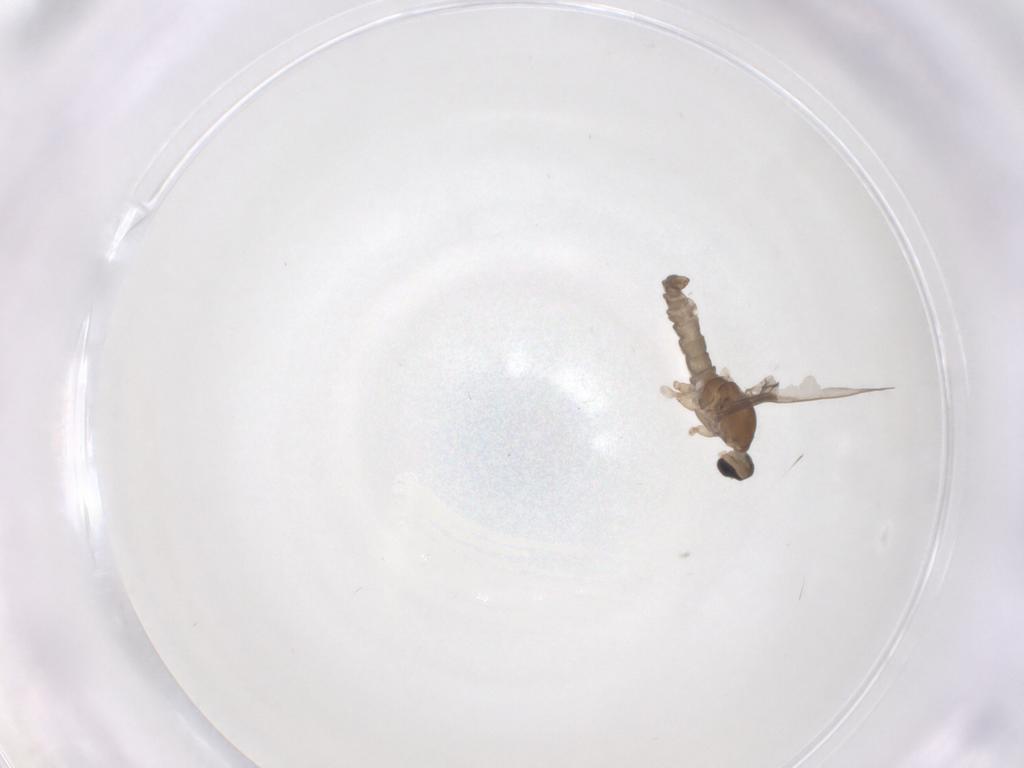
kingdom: Animalia
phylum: Arthropoda
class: Insecta
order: Diptera
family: Cecidomyiidae
